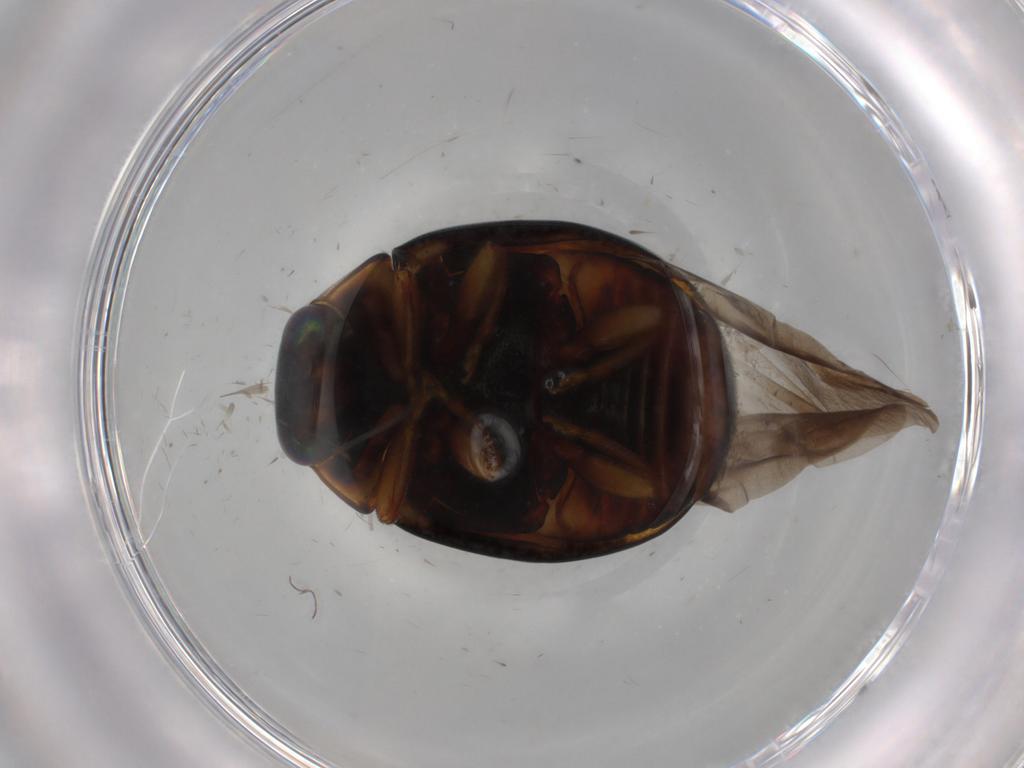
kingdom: Animalia
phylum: Arthropoda
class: Insecta
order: Coleoptera
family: Coccinellidae
